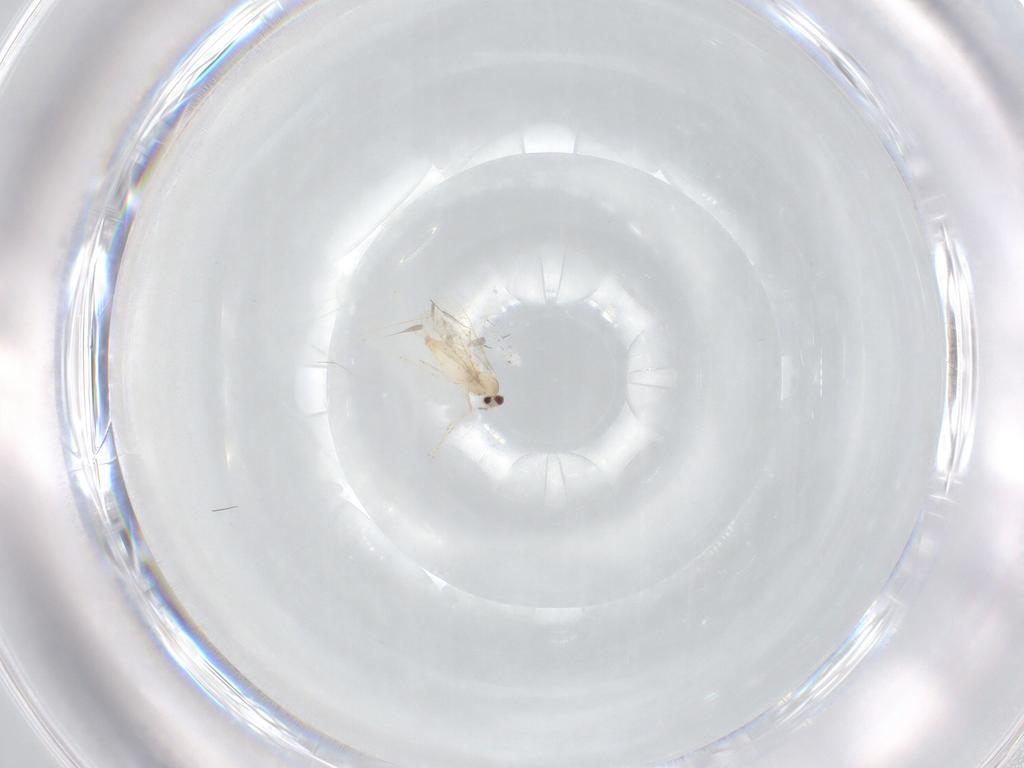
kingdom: Animalia
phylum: Arthropoda
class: Insecta
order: Diptera
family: Cecidomyiidae
